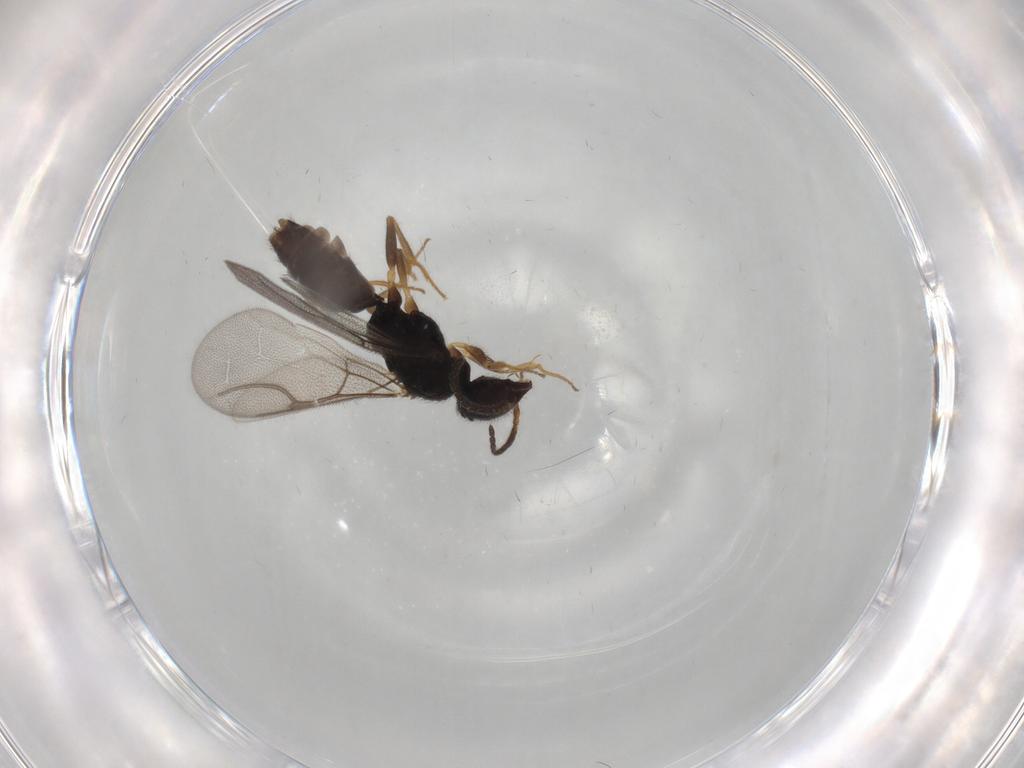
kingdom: Animalia
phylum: Arthropoda
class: Insecta
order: Hymenoptera
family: Bethylidae
